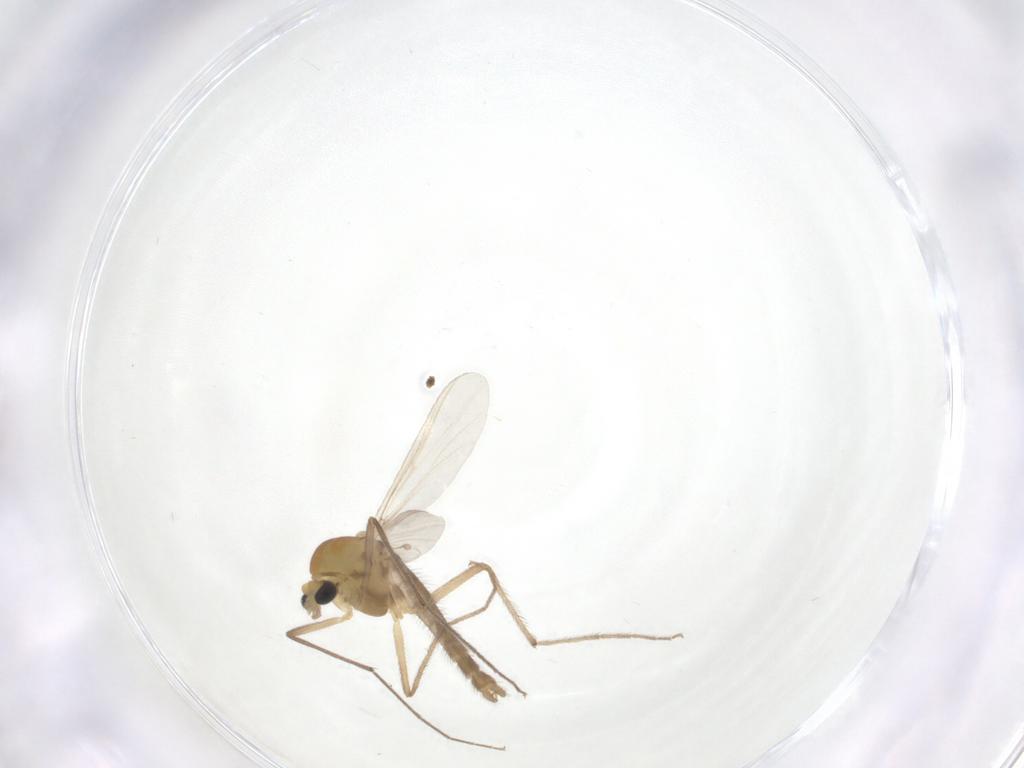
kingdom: Animalia
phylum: Arthropoda
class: Insecta
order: Diptera
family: Chironomidae
